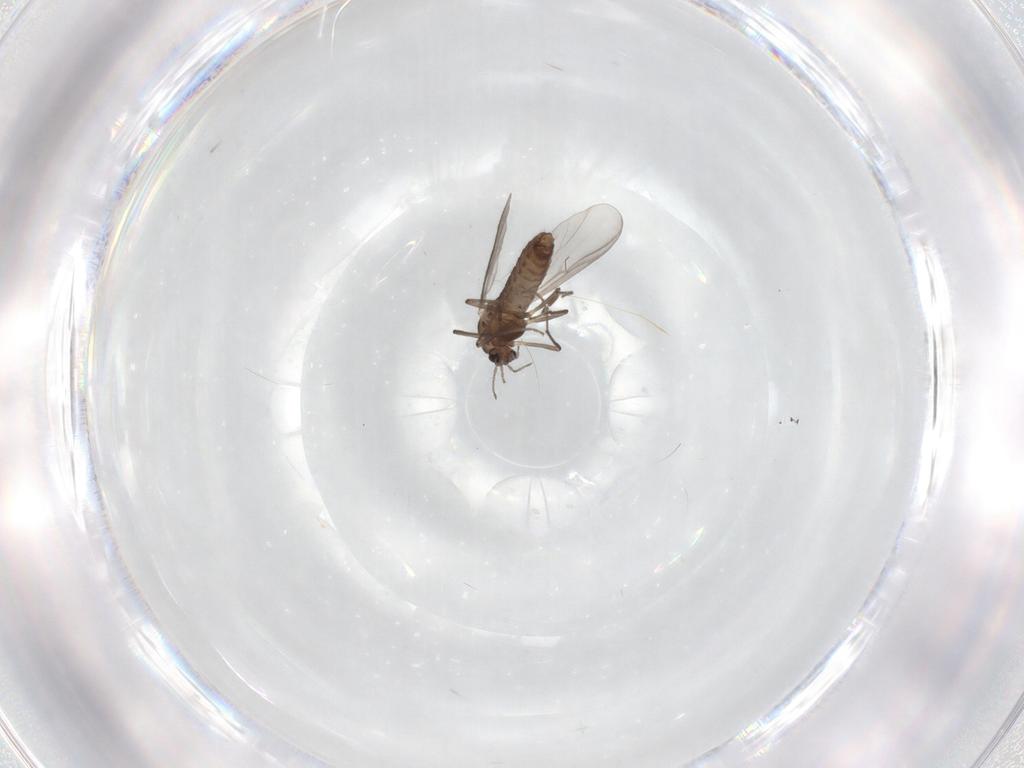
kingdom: Animalia
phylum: Arthropoda
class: Insecta
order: Diptera
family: Chironomidae
